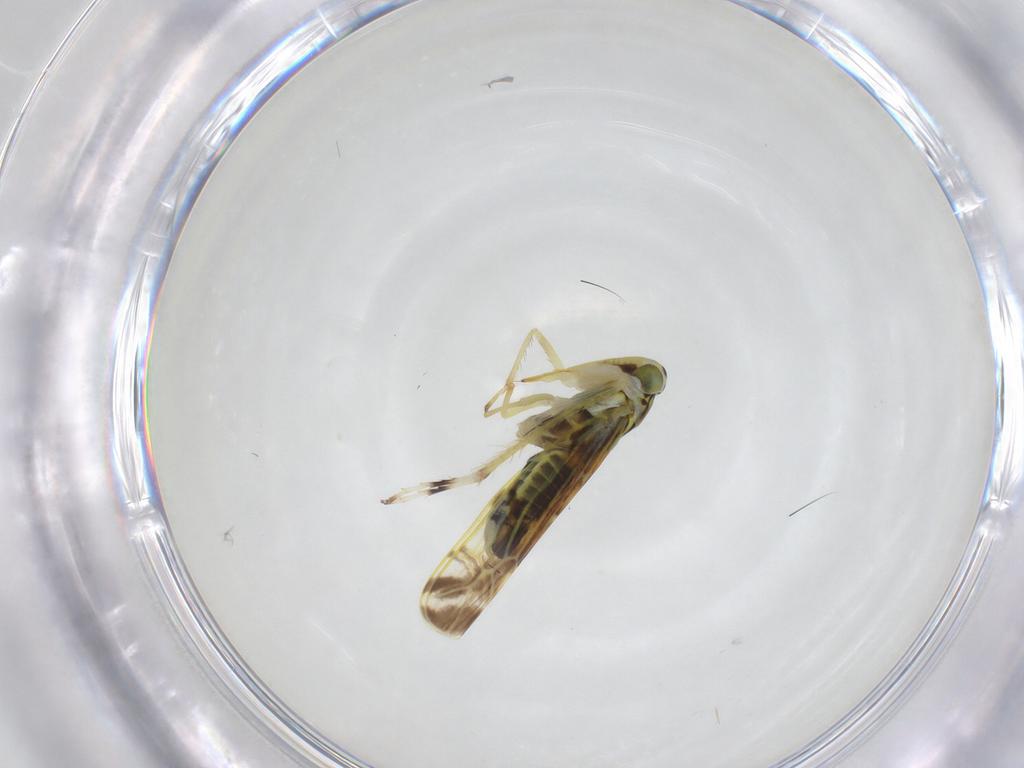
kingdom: Animalia
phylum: Arthropoda
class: Insecta
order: Hemiptera
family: Cicadellidae
